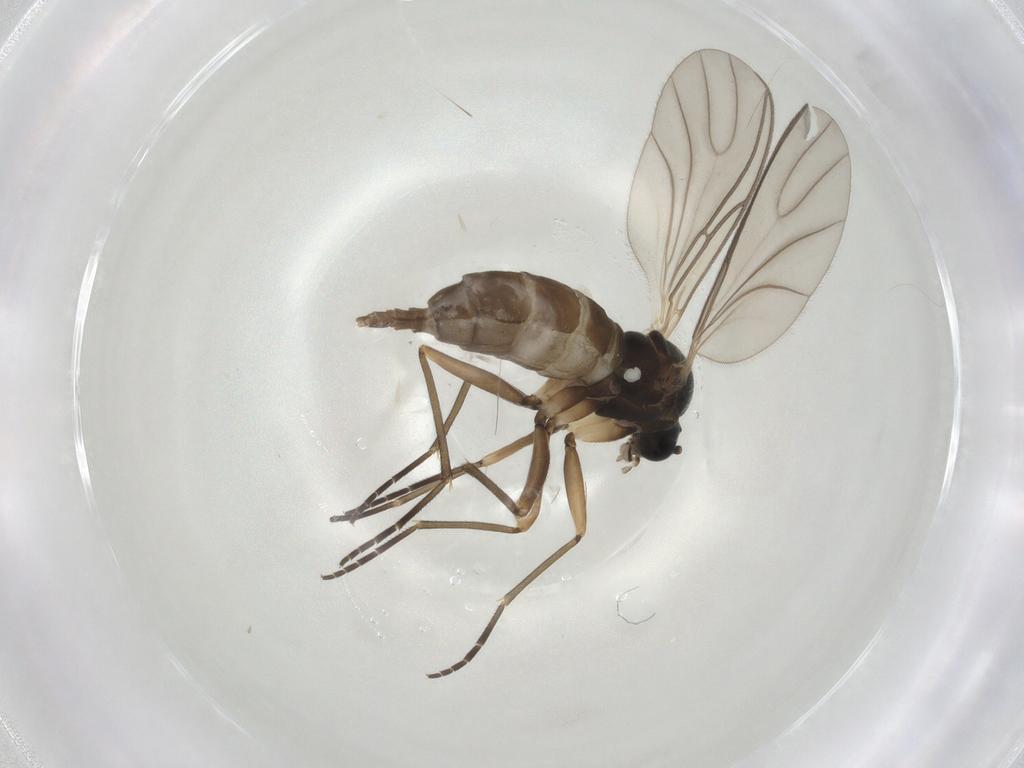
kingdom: Animalia
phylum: Arthropoda
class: Insecta
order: Diptera
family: Sciaridae
